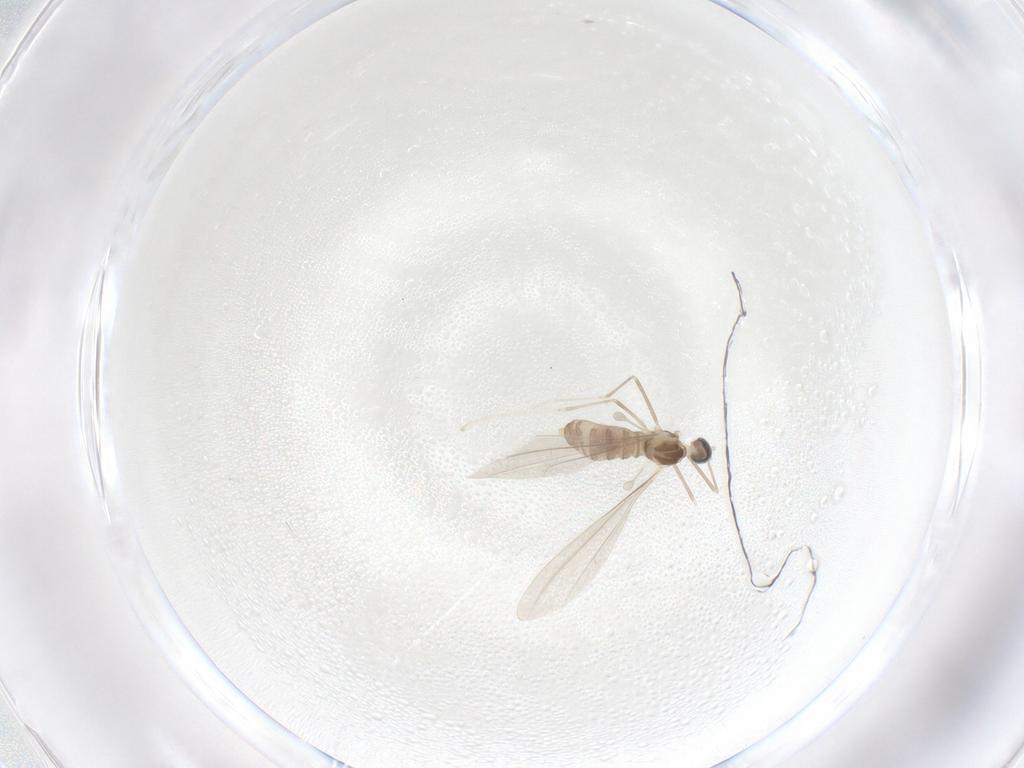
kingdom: Animalia
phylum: Arthropoda
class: Insecta
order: Diptera
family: Cecidomyiidae
